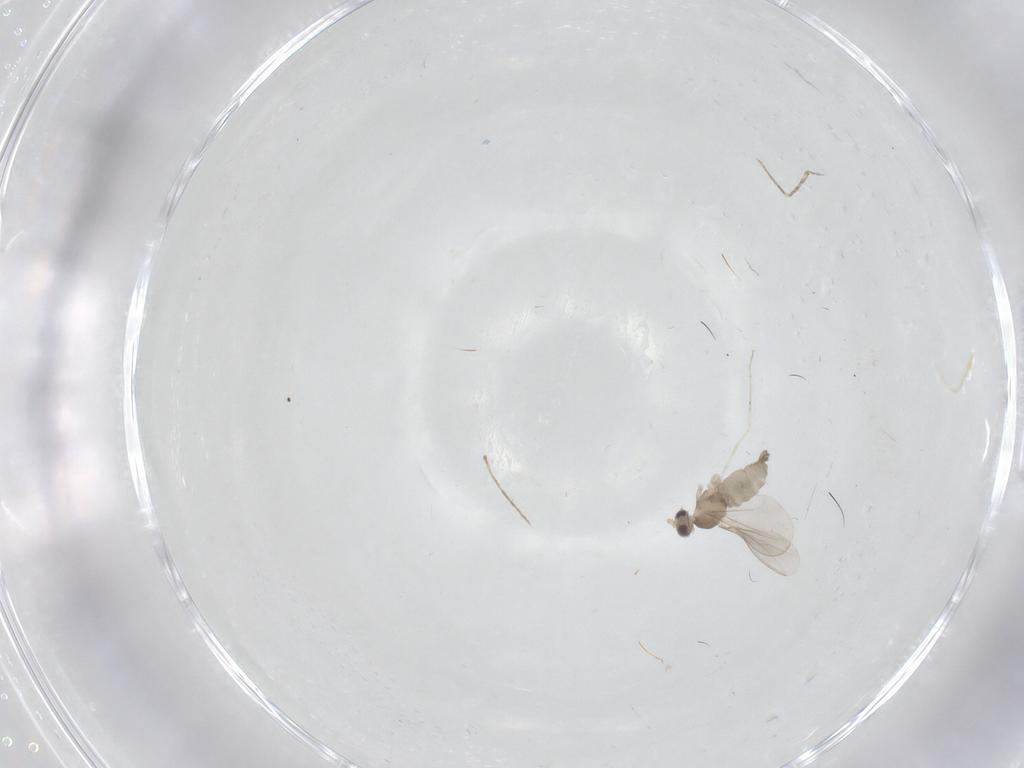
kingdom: Animalia
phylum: Arthropoda
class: Insecta
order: Diptera
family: Cecidomyiidae
